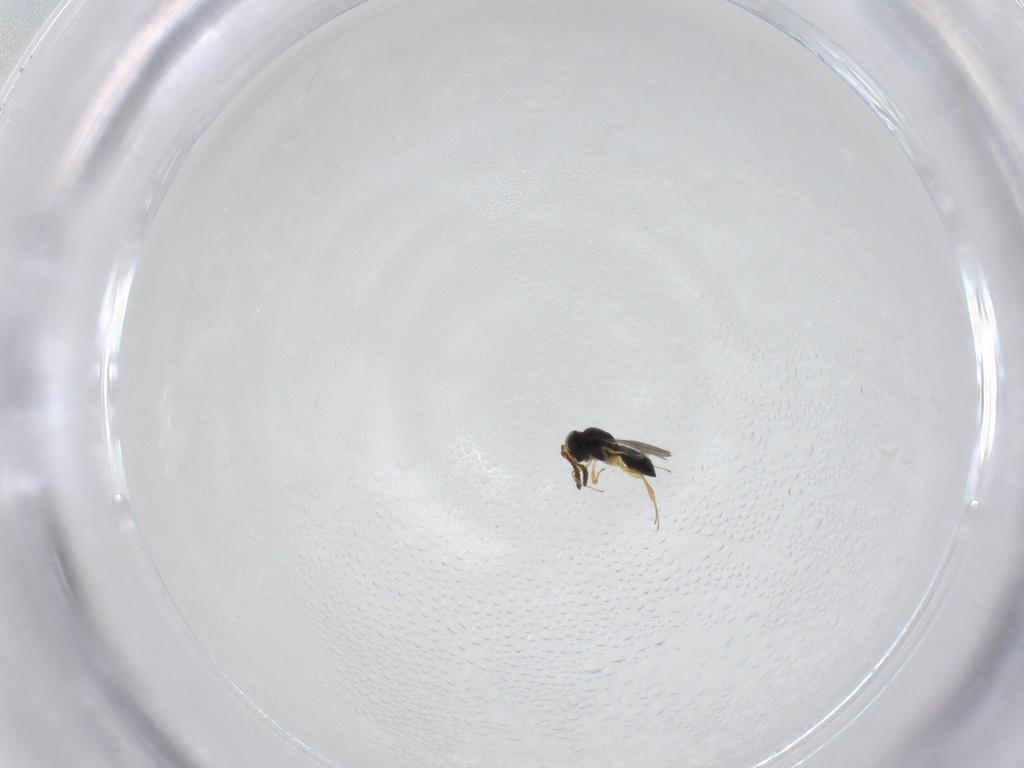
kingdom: Animalia
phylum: Arthropoda
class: Insecta
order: Hymenoptera
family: Scelionidae
